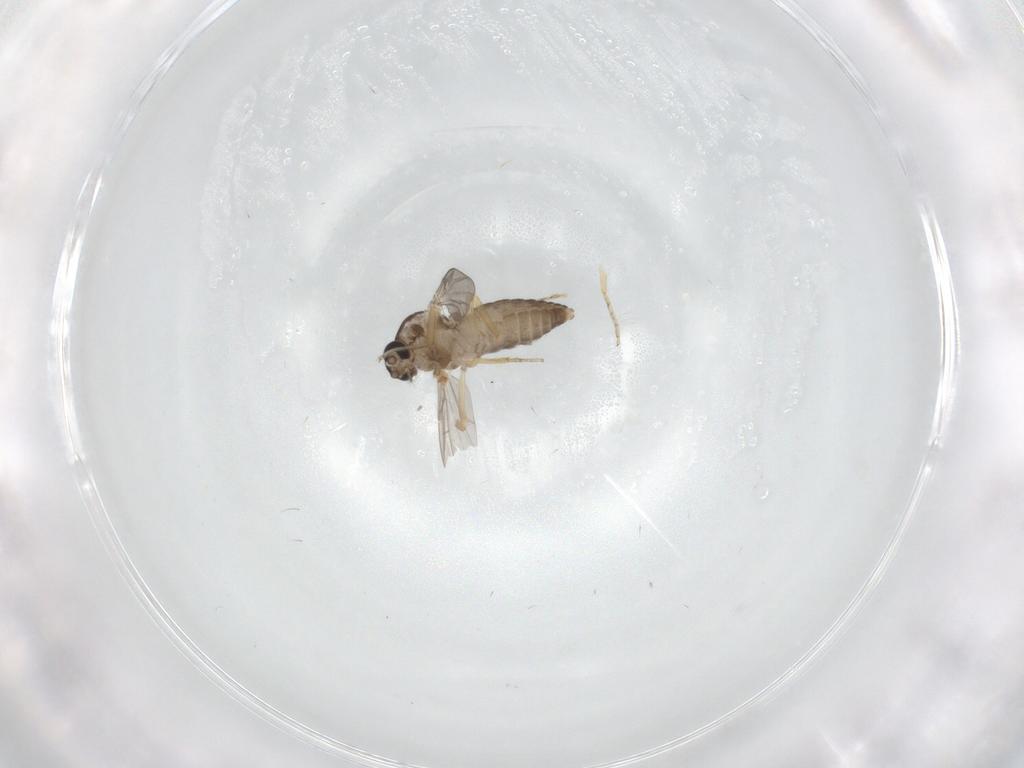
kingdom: Animalia
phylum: Arthropoda
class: Insecta
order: Diptera
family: Ceratopogonidae
